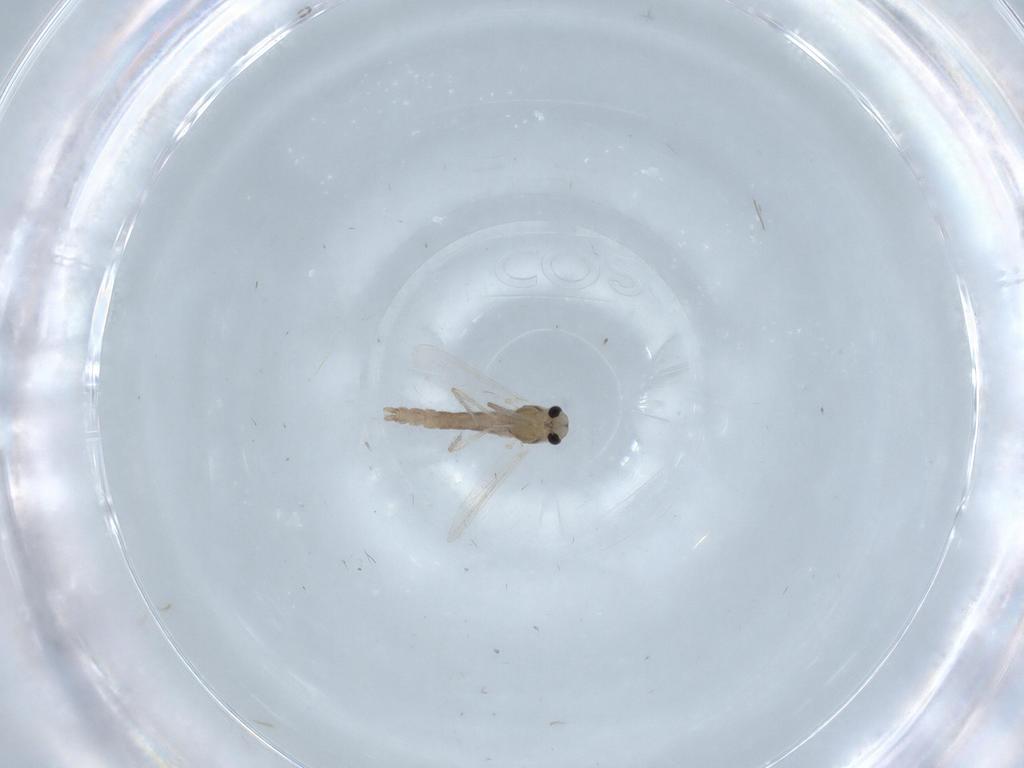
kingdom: Animalia
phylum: Arthropoda
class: Insecta
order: Diptera
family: Chironomidae
